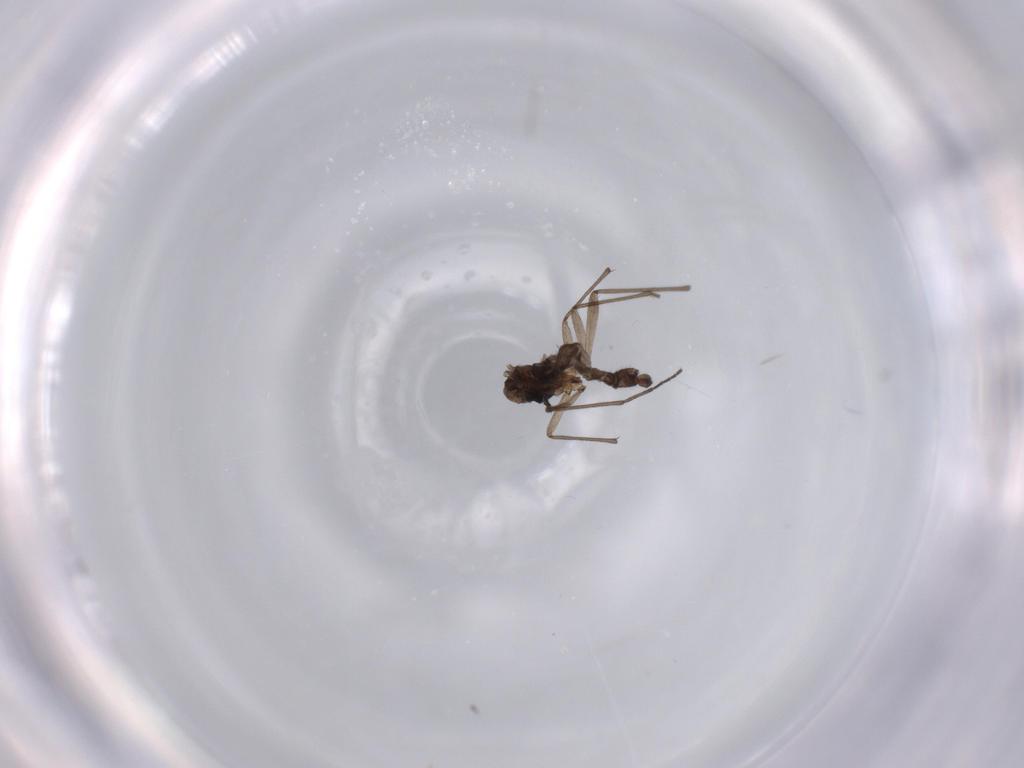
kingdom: Animalia
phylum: Arthropoda
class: Insecta
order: Diptera
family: Sciaridae
